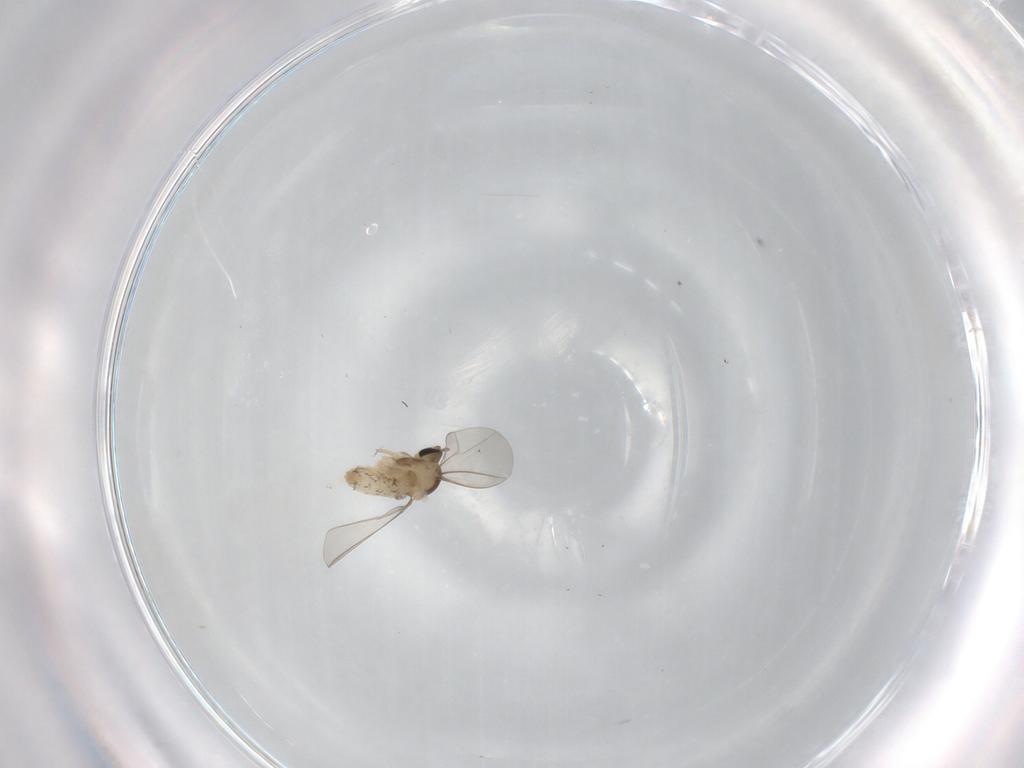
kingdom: Animalia
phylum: Arthropoda
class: Insecta
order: Diptera
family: Cecidomyiidae
